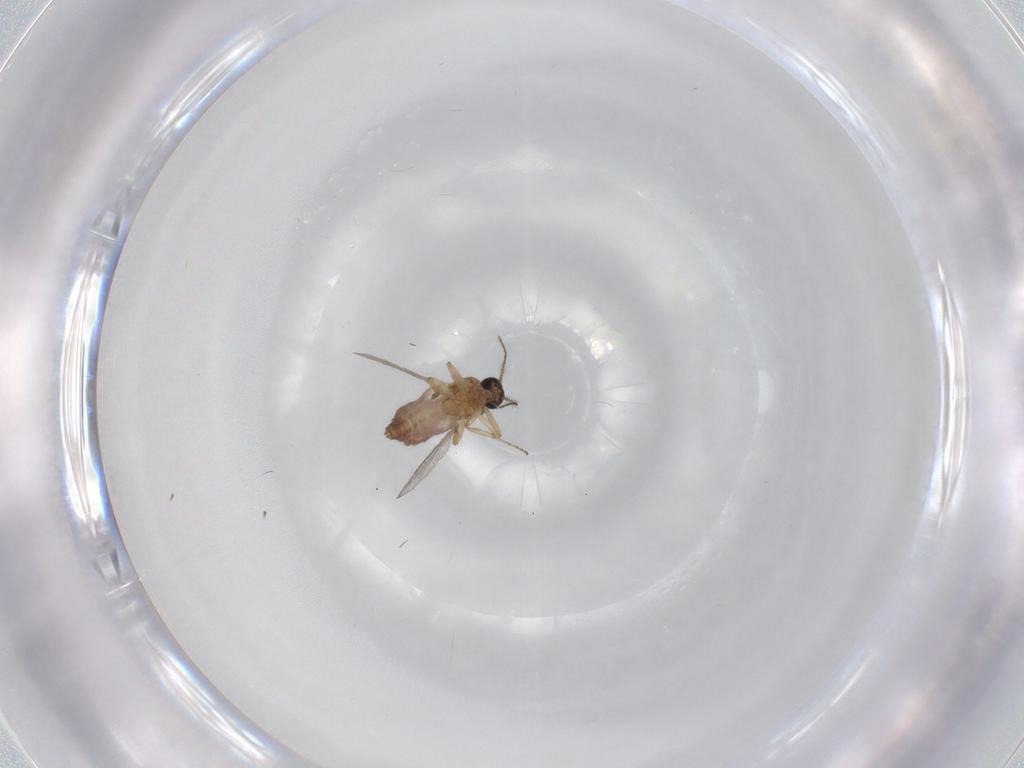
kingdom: Animalia
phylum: Arthropoda
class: Insecta
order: Diptera
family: Ceratopogonidae
